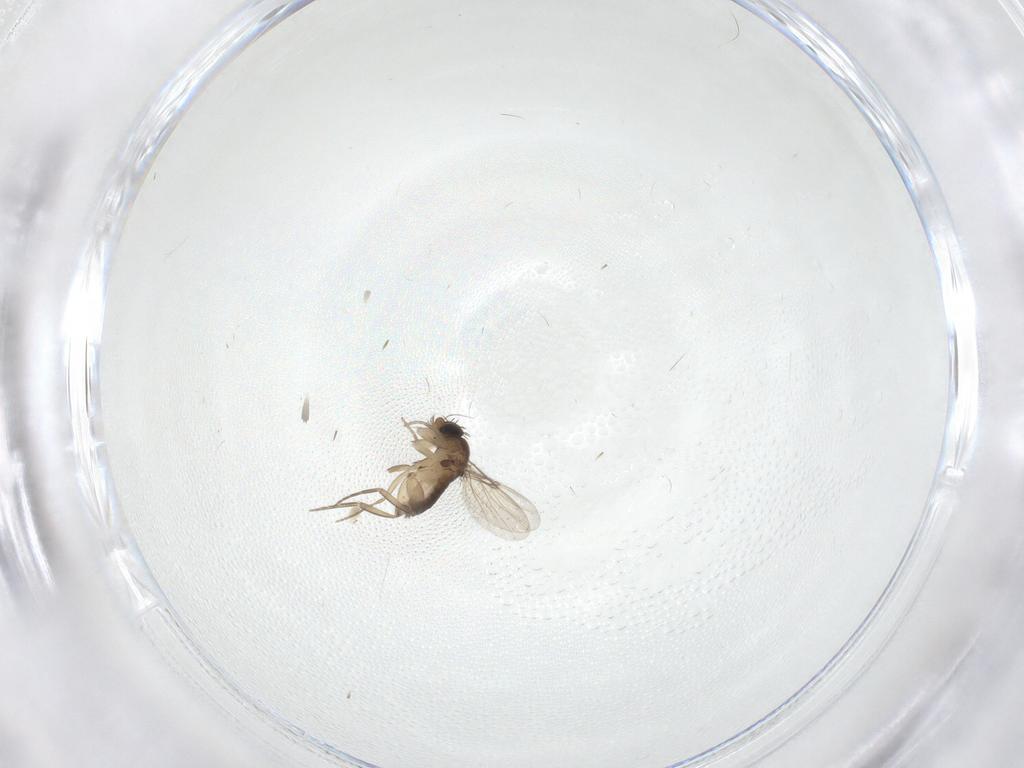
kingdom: Animalia
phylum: Arthropoda
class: Insecta
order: Diptera
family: Phoridae
